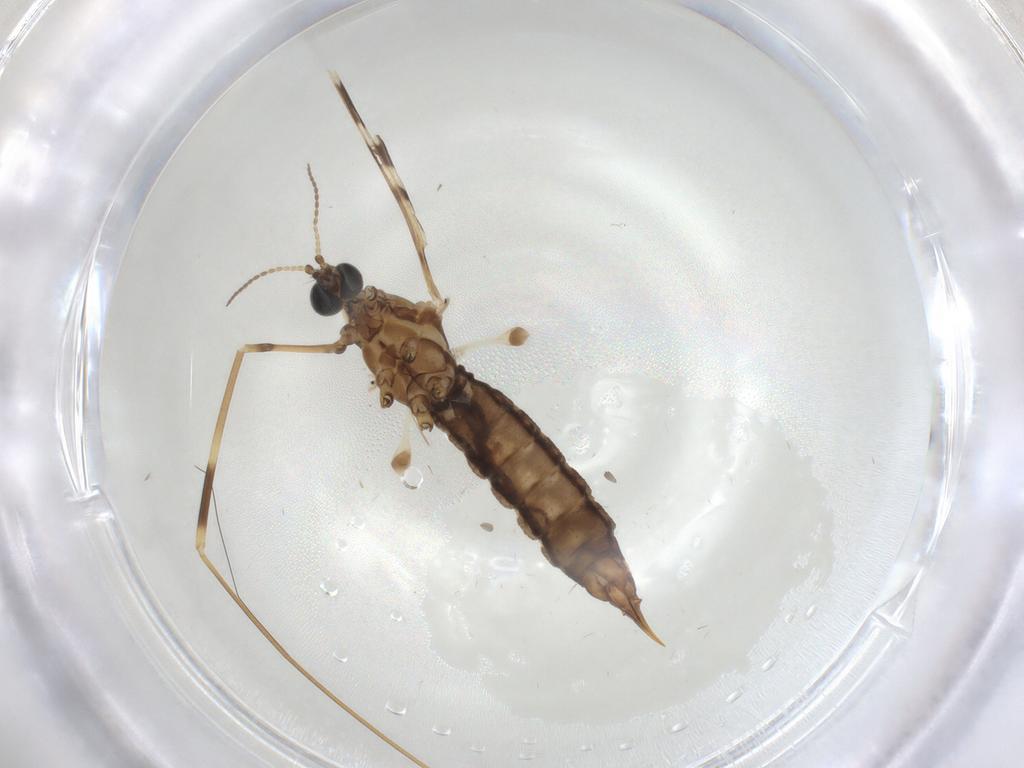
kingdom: Animalia
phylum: Arthropoda
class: Insecta
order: Diptera
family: Limoniidae
